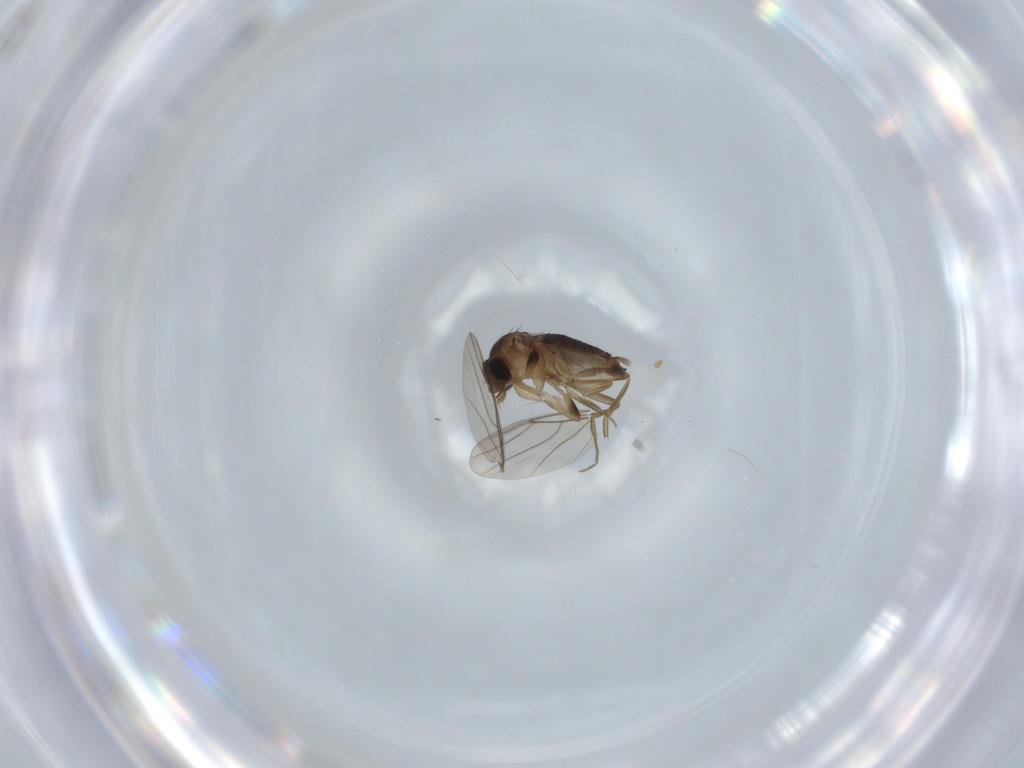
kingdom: Animalia
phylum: Arthropoda
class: Insecta
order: Diptera
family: Phoridae
